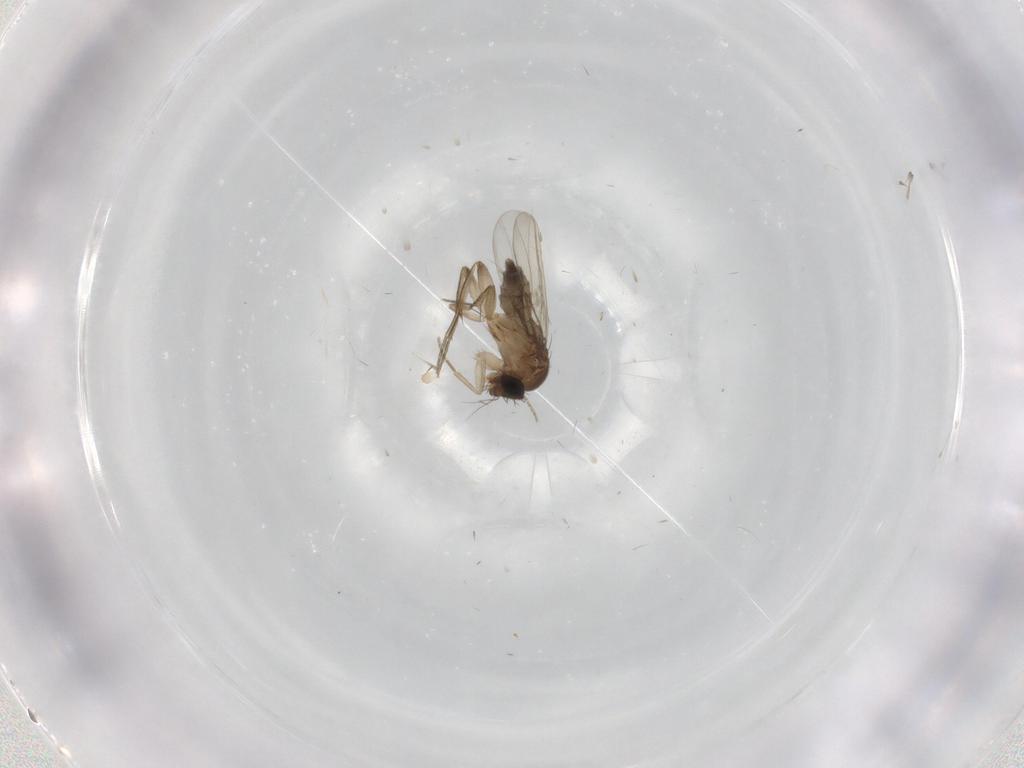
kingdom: Animalia
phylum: Arthropoda
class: Insecta
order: Diptera
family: Phoridae
